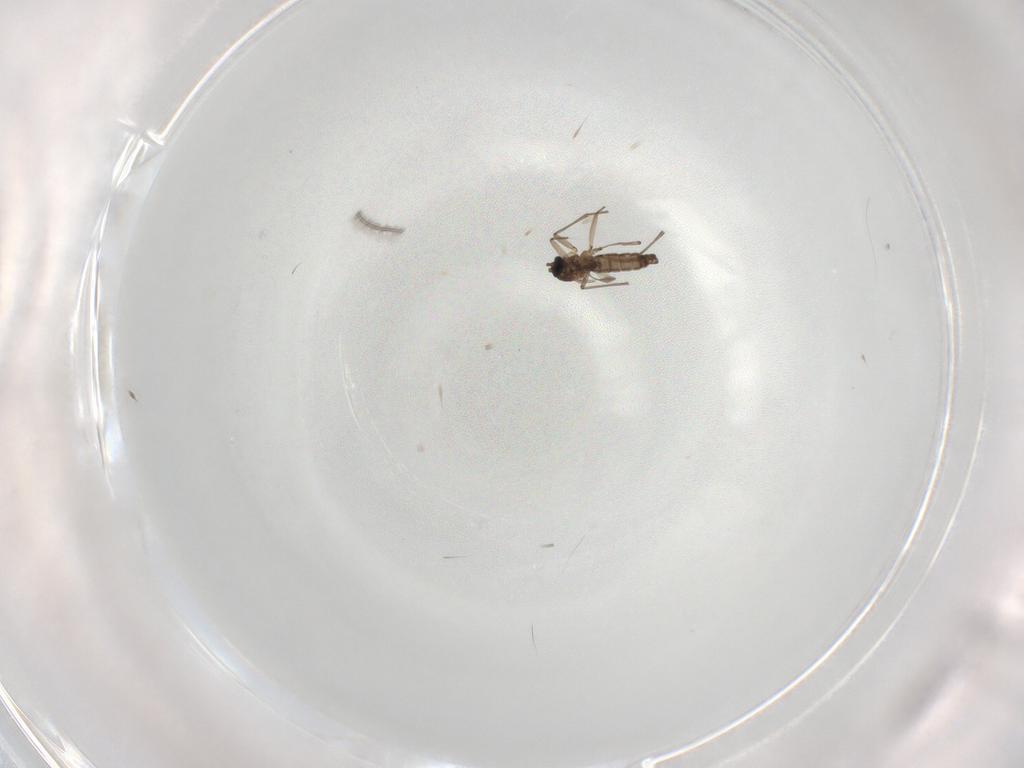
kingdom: Animalia
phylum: Arthropoda
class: Insecta
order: Diptera
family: Sciaridae
